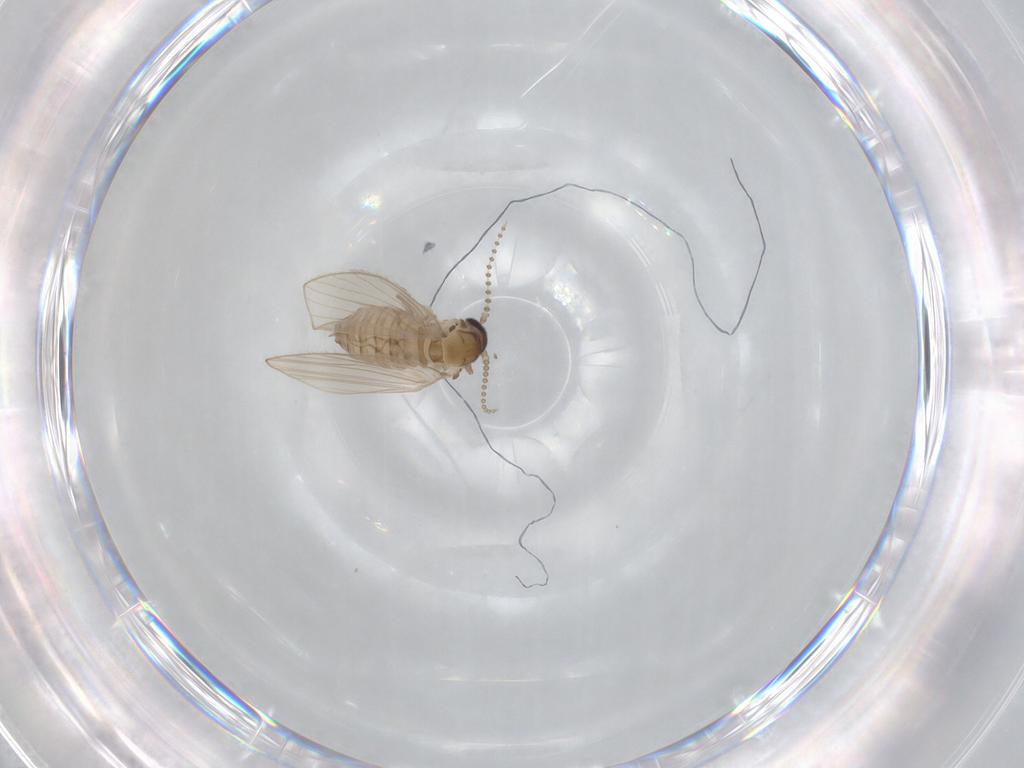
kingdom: Animalia
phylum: Arthropoda
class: Insecta
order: Diptera
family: Psychodidae
